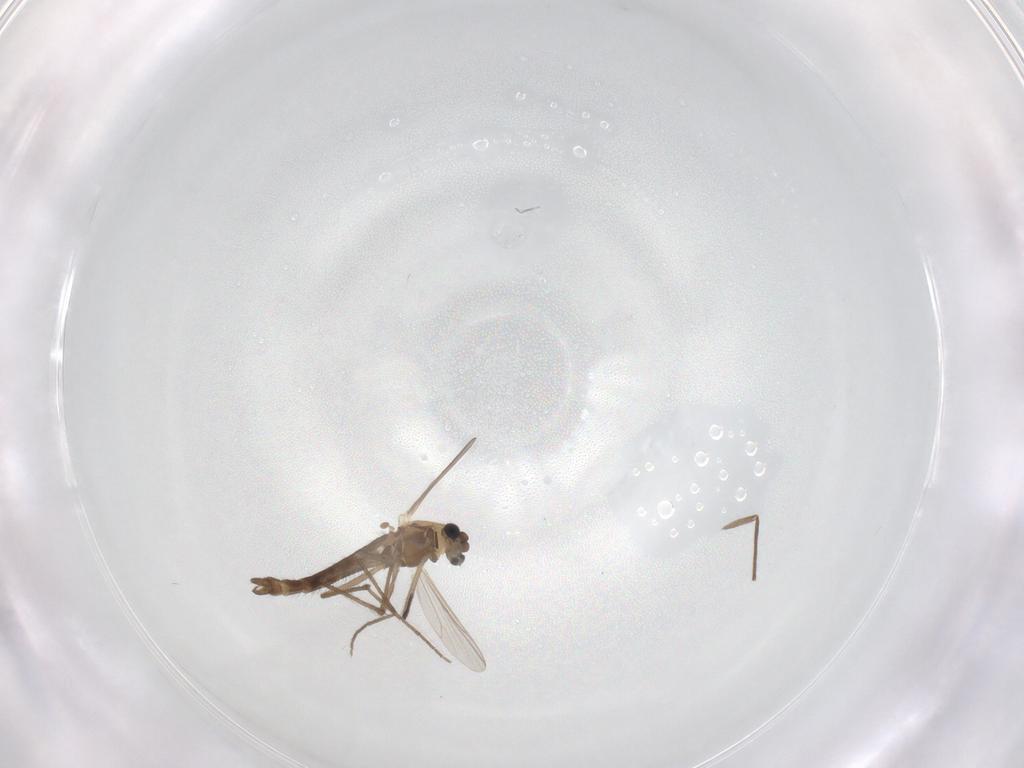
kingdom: Animalia
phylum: Arthropoda
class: Insecta
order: Diptera
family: Chironomidae
